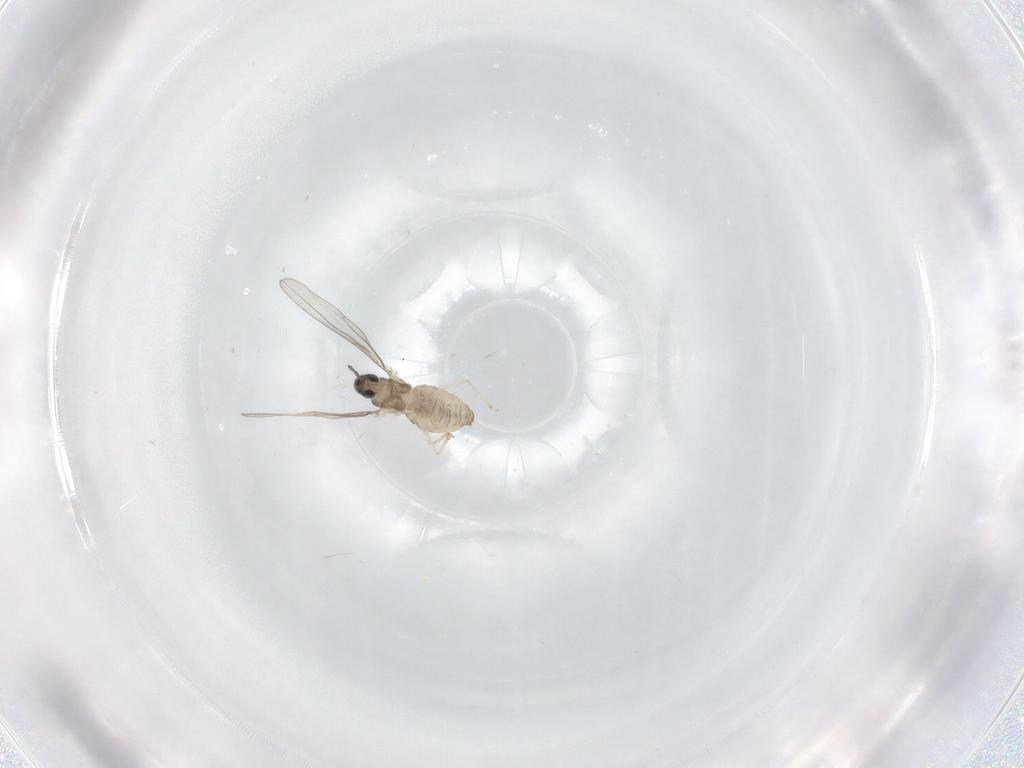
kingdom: Animalia
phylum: Arthropoda
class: Insecta
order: Diptera
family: Cecidomyiidae
